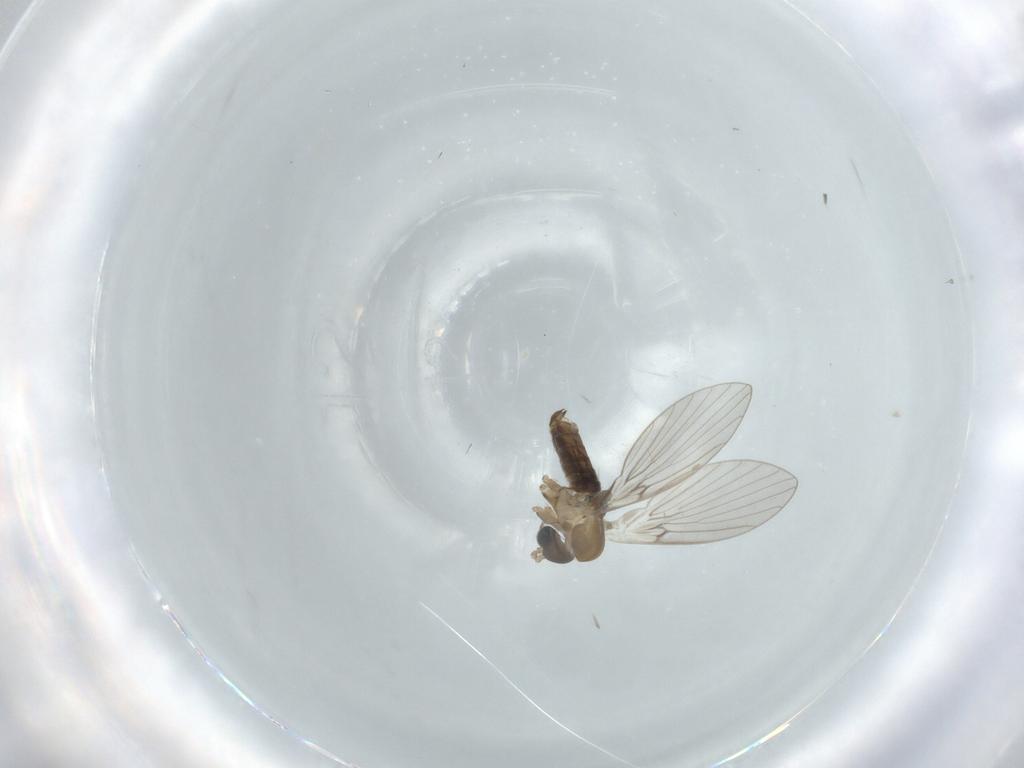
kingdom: Animalia
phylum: Arthropoda
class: Insecta
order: Diptera
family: Psychodidae
